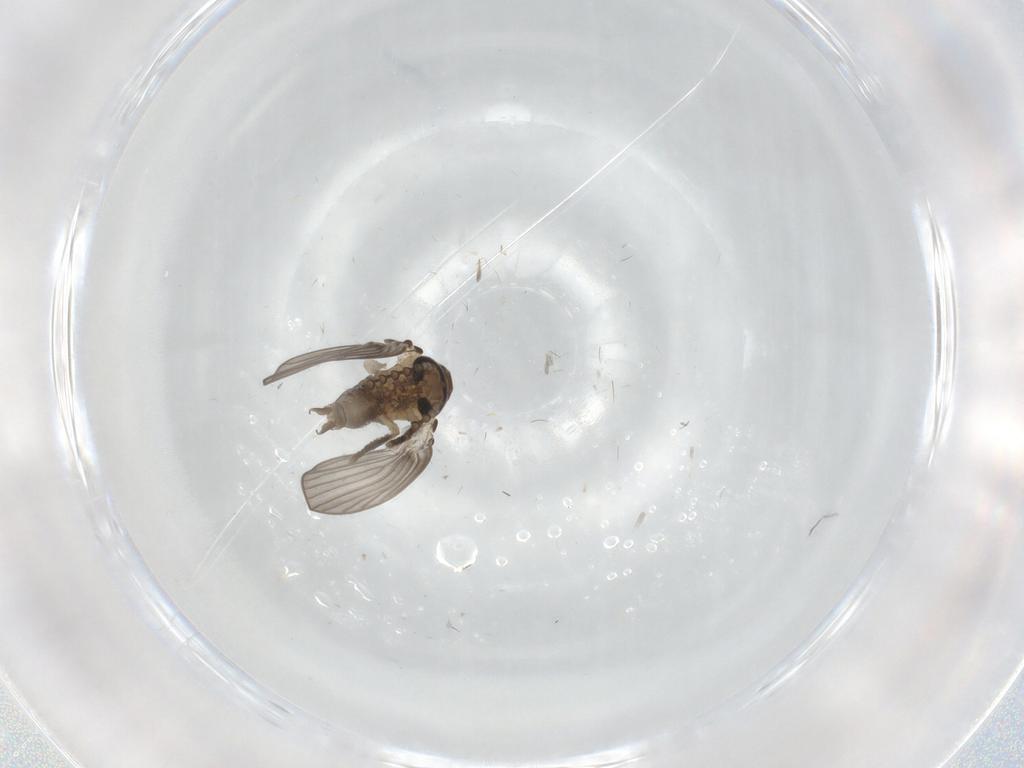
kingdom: Animalia
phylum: Arthropoda
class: Insecta
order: Diptera
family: Psychodidae
